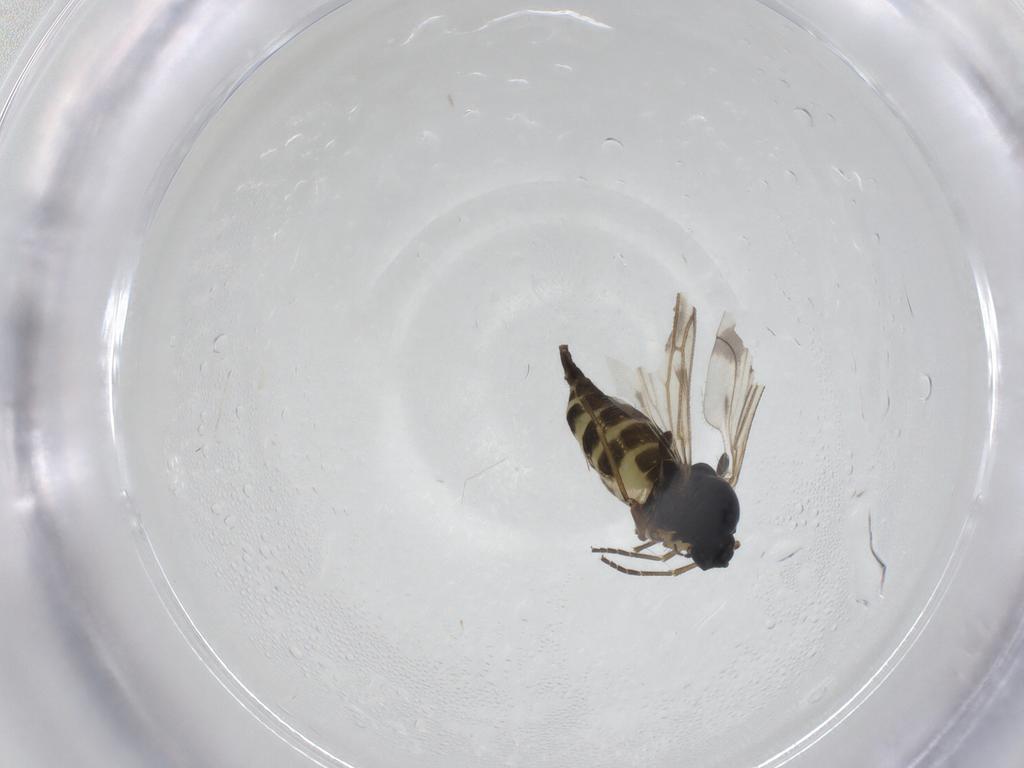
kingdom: Animalia
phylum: Arthropoda
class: Insecta
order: Diptera
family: Sciaridae
